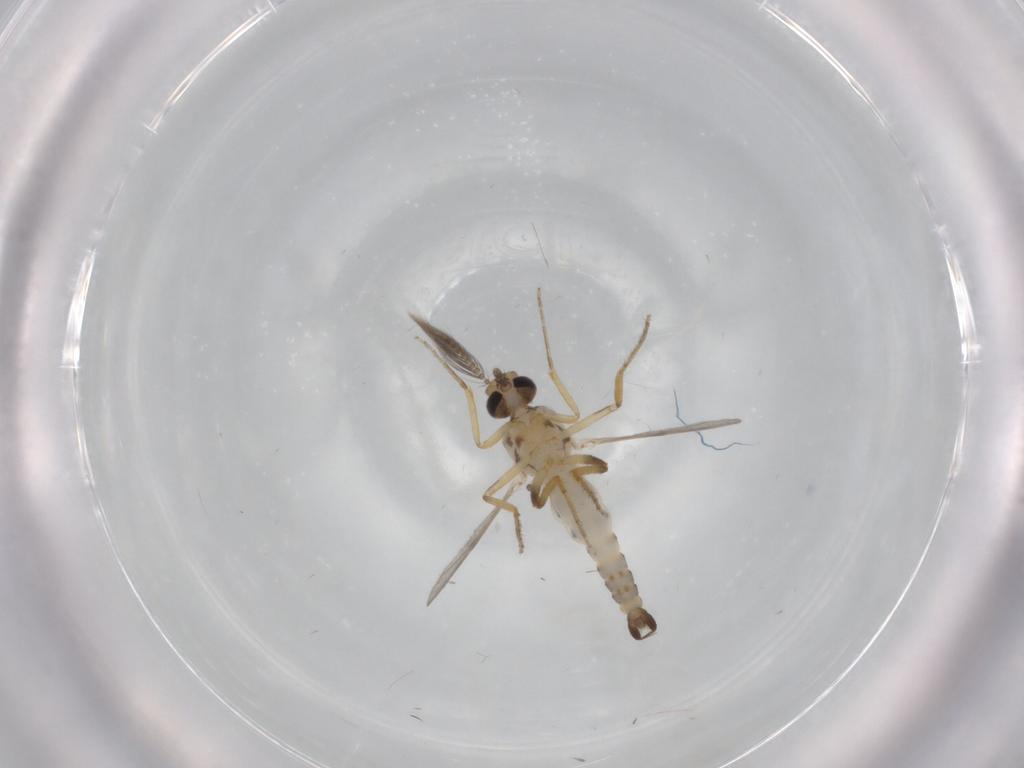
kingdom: Animalia
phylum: Arthropoda
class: Insecta
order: Diptera
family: Ceratopogonidae
